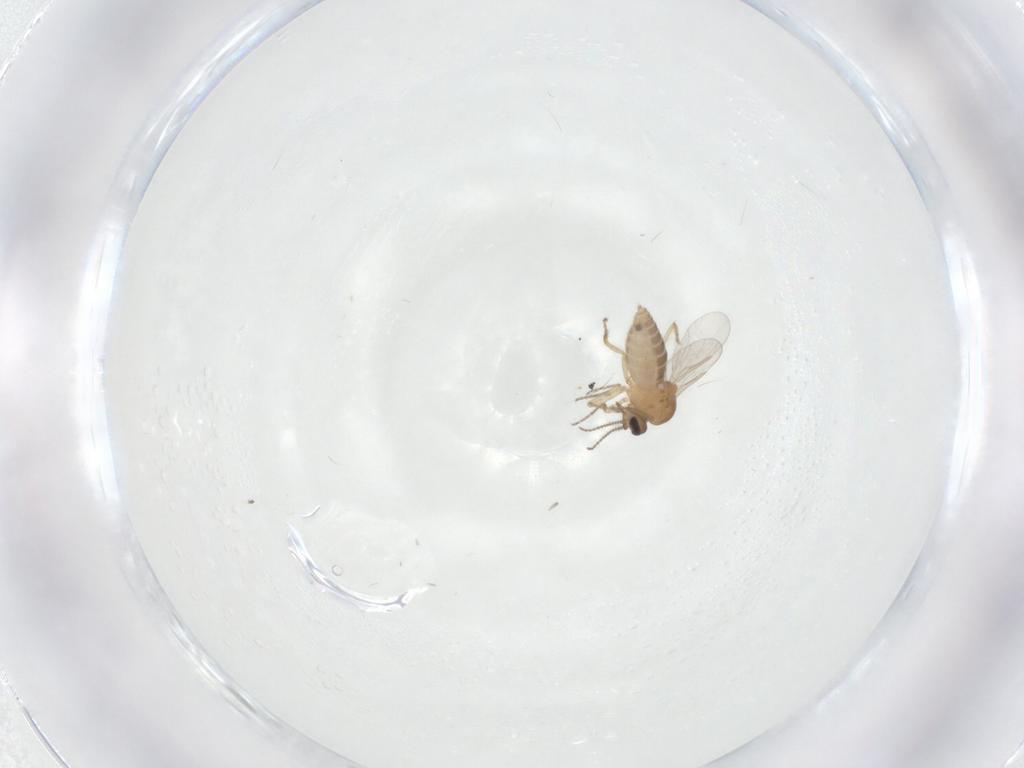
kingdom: Animalia
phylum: Arthropoda
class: Insecta
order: Diptera
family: Ceratopogonidae
